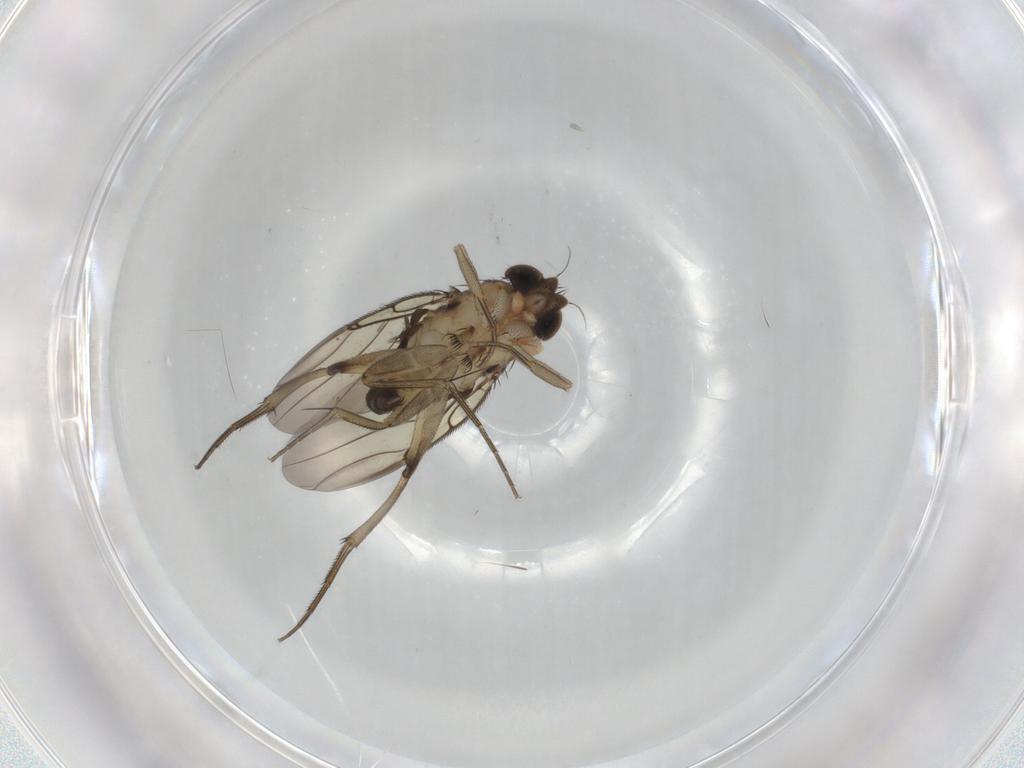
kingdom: Animalia
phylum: Arthropoda
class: Insecta
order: Diptera
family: Phoridae
